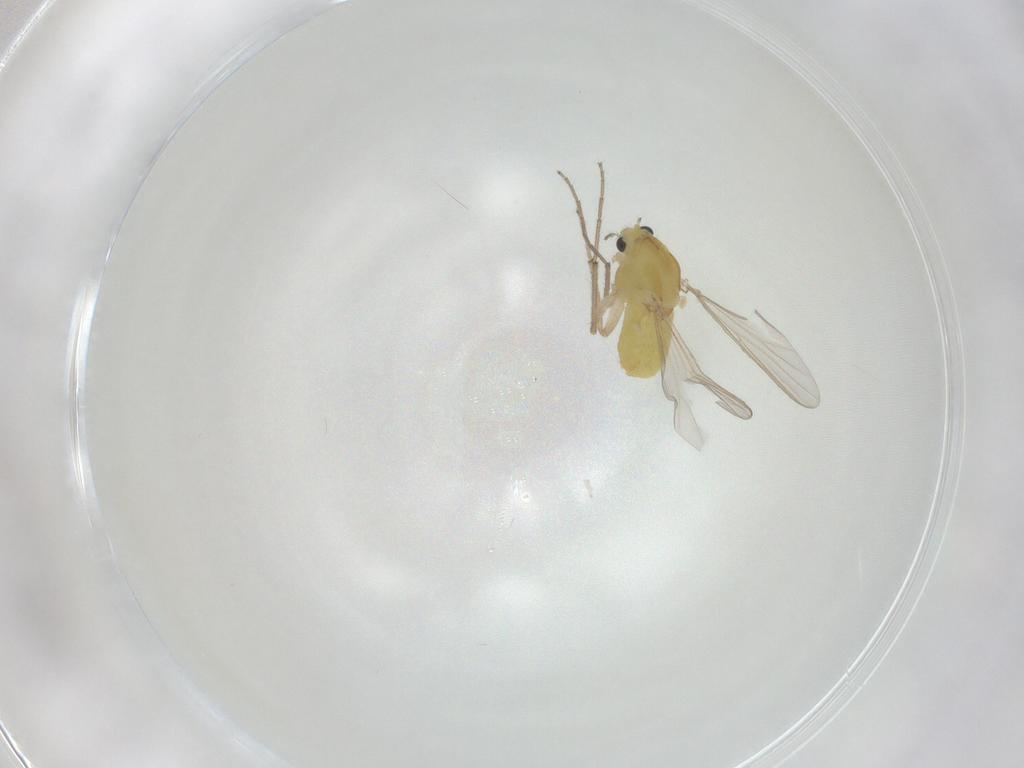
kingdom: Animalia
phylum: Arthropoda
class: Insecta
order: Diptera
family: Chironomidae
